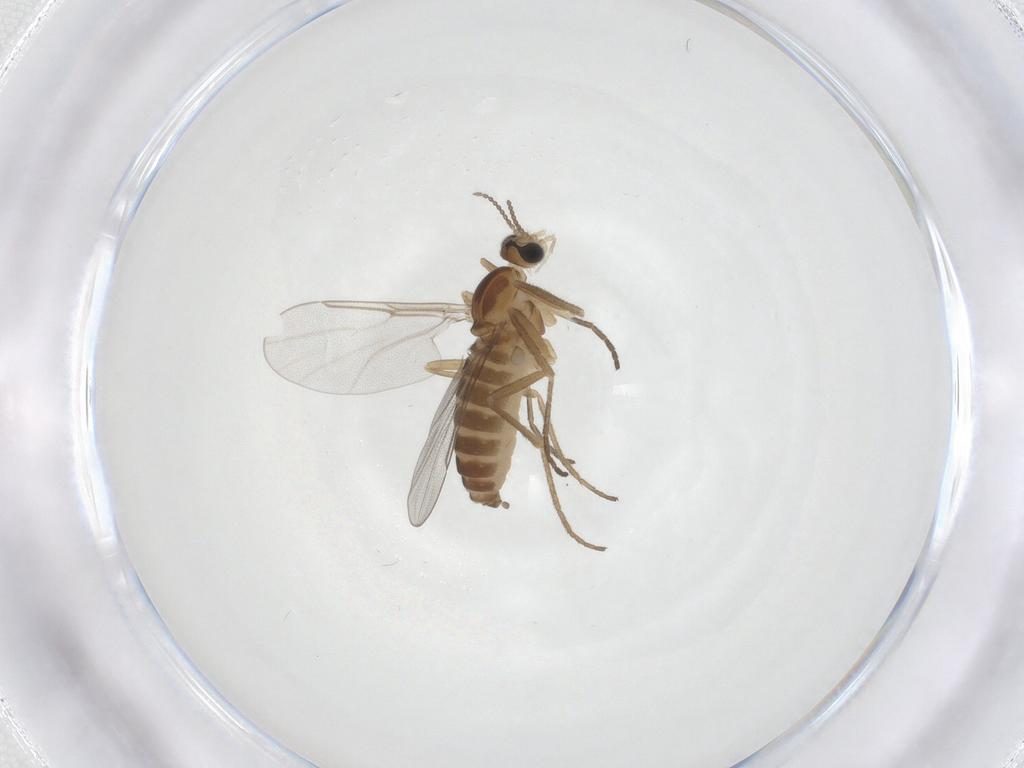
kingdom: Animalia
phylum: Arthropoda
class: Insecta
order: Diptera
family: Cecidomyiidae
